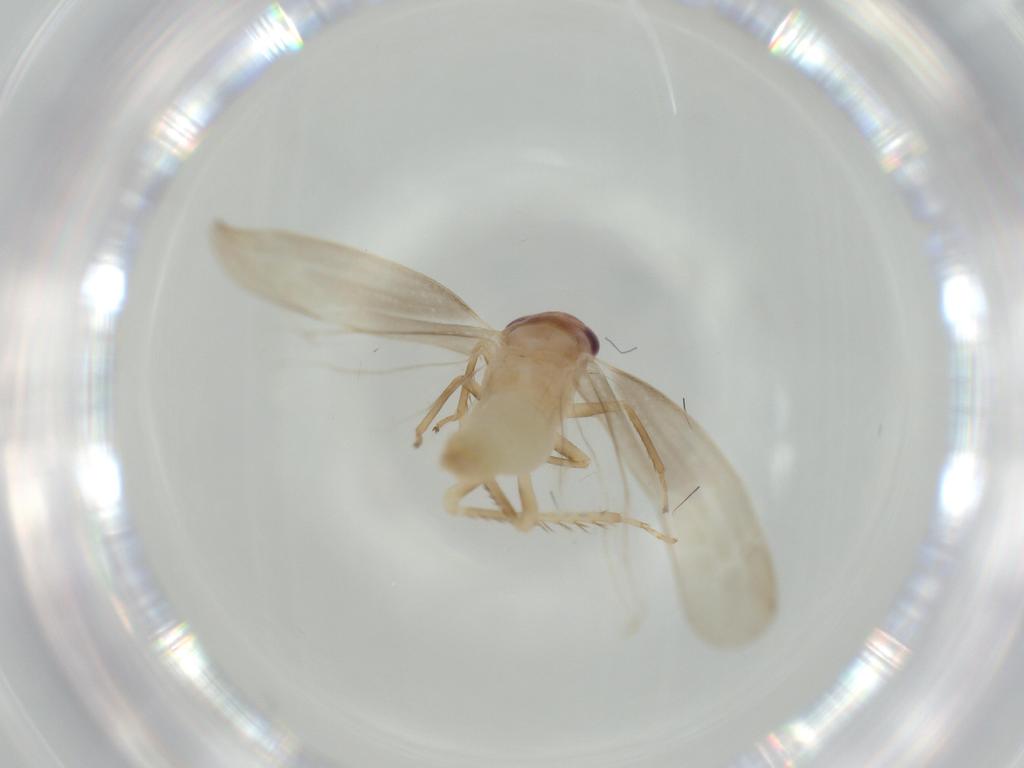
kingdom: Animalia
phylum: Arthropoda
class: Insecta
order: Hemiptera
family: Cicadellidae
